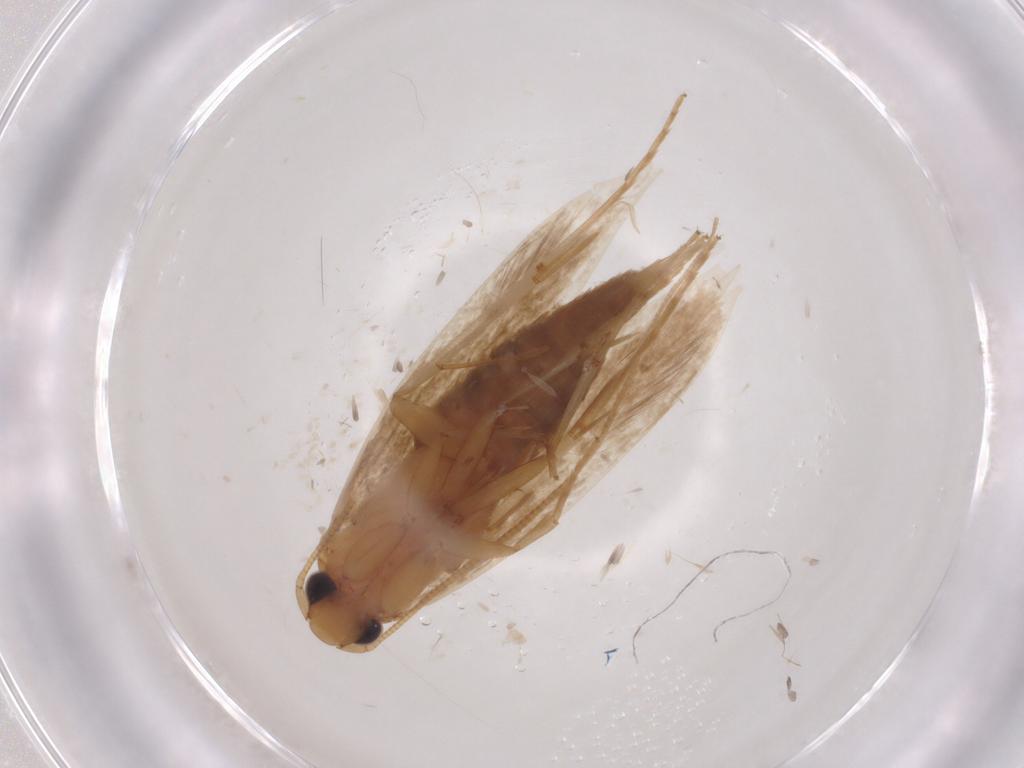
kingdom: Animalia
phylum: Arthropoda
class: Insecta
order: Lepidoptera
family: Tineidae
